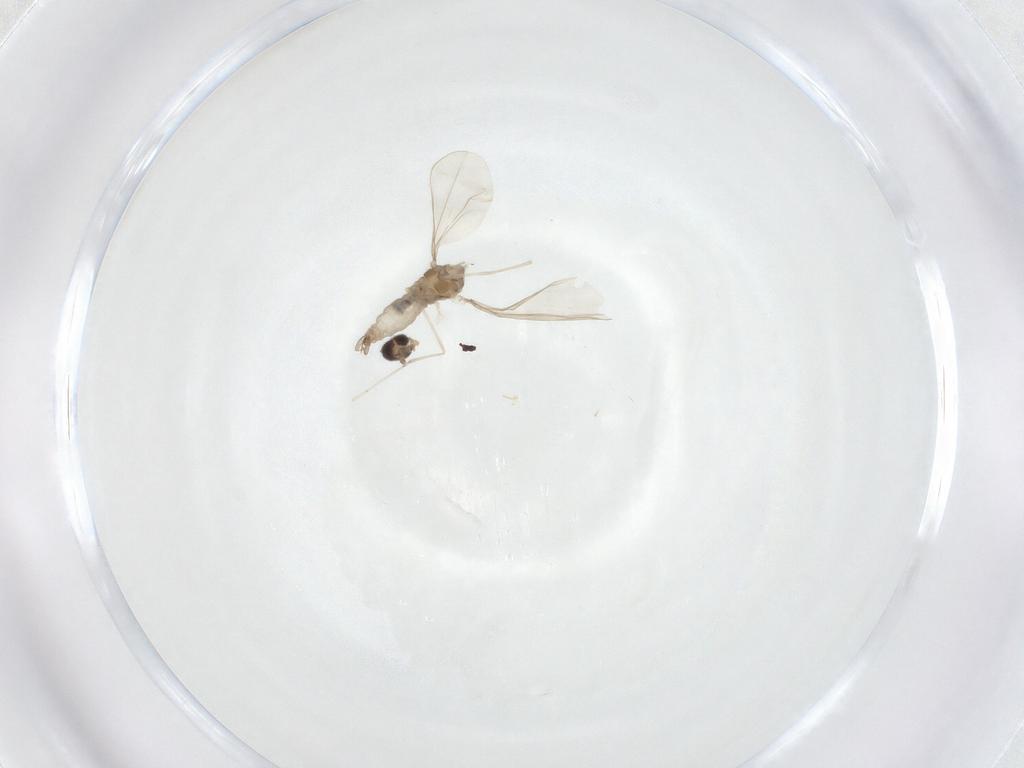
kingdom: Animalia
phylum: Arthropoda
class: Insecta
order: Diptera
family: Cecidomyiidae
